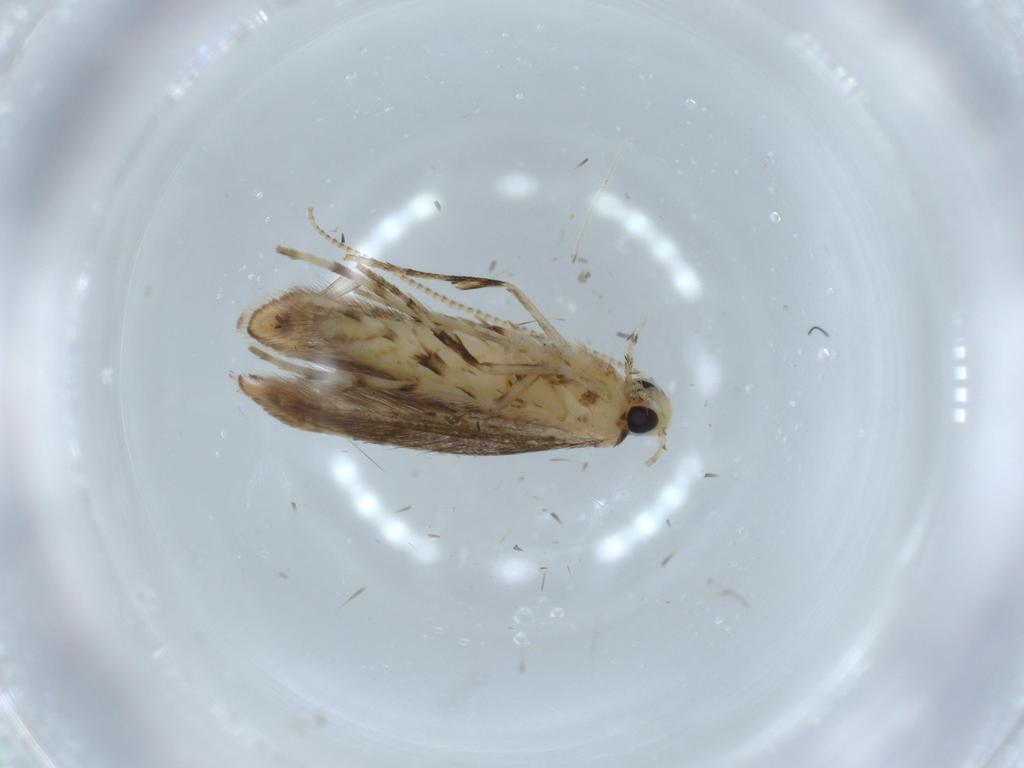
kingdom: Animalia
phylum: Arthropoda
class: Insecta
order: Lepidoptera
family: Gracillariidae
